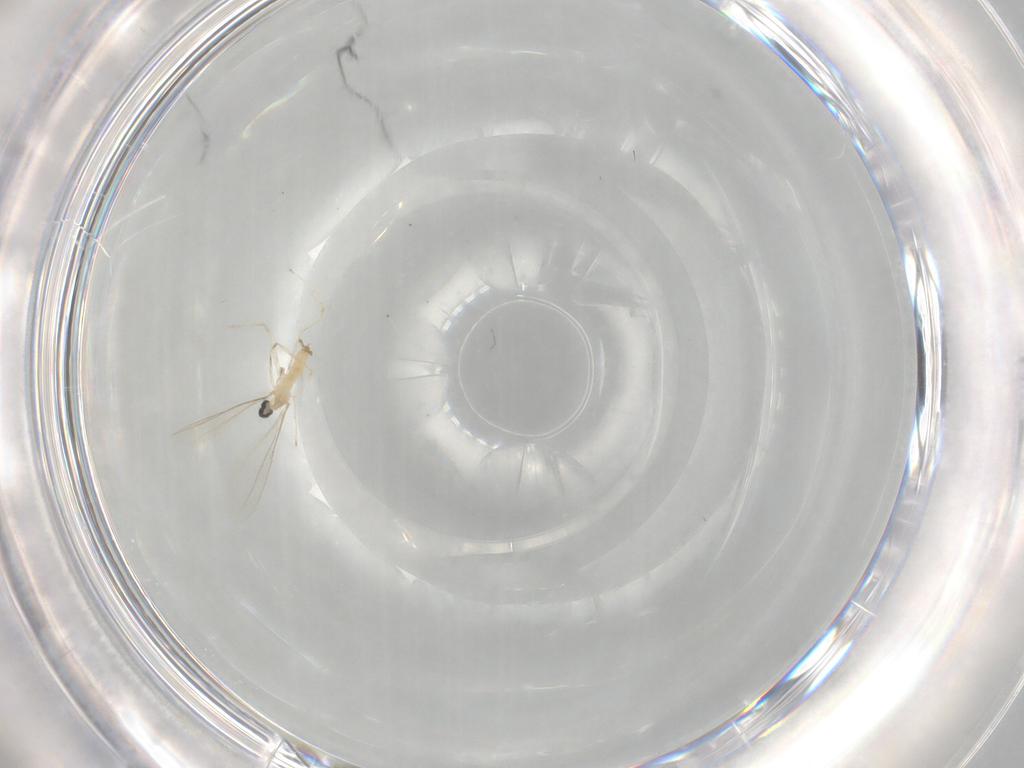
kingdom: Animalia
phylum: Arthropoda
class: Insecta
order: Diptera
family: Cecidomyiidae
